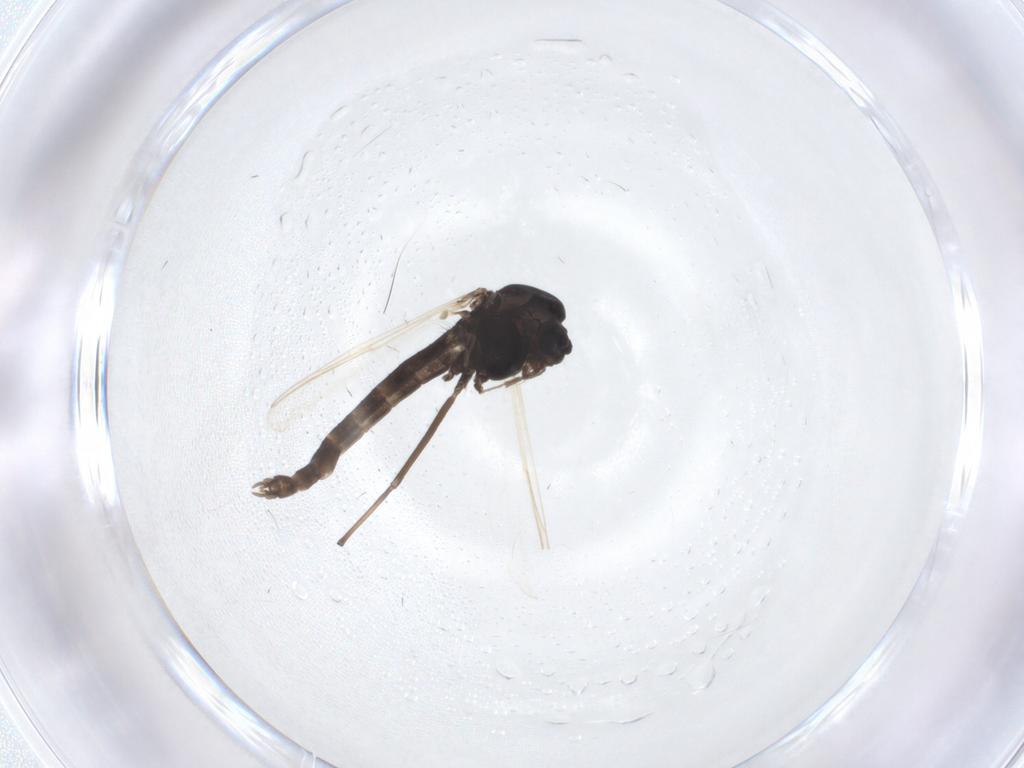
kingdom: Animalia
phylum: Arthropoda
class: Insecta
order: Diptera
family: Chironomidae
